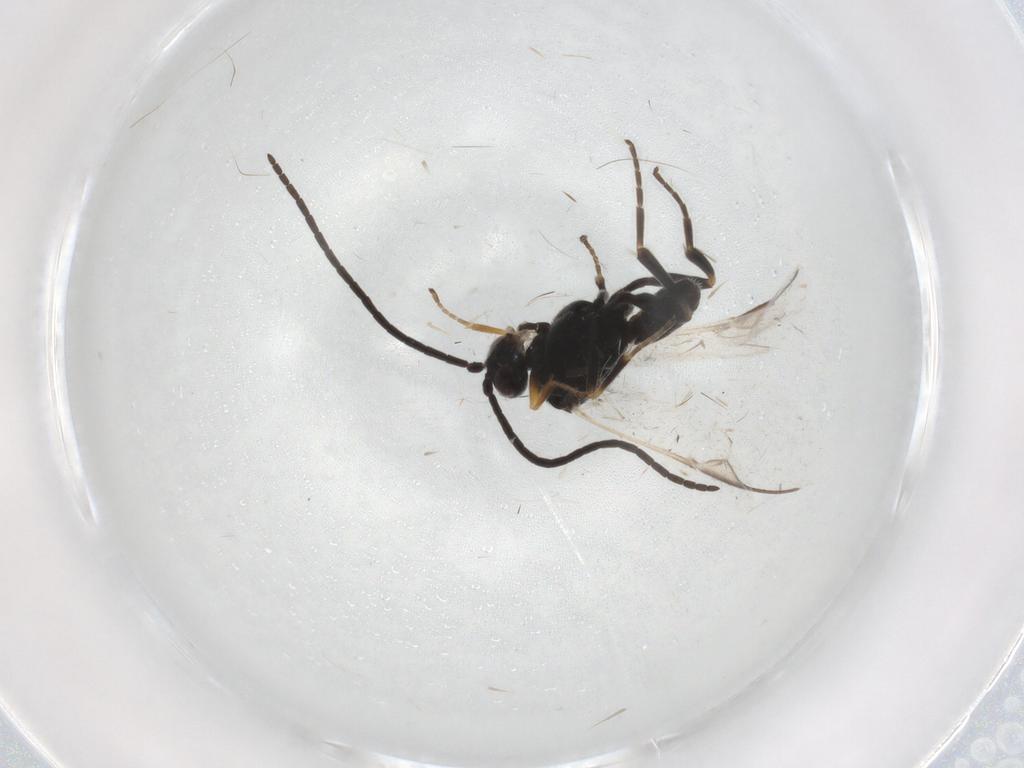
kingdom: Animalia
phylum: Arthropoda
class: Insecta
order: Hymenoptera
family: Braconidae
